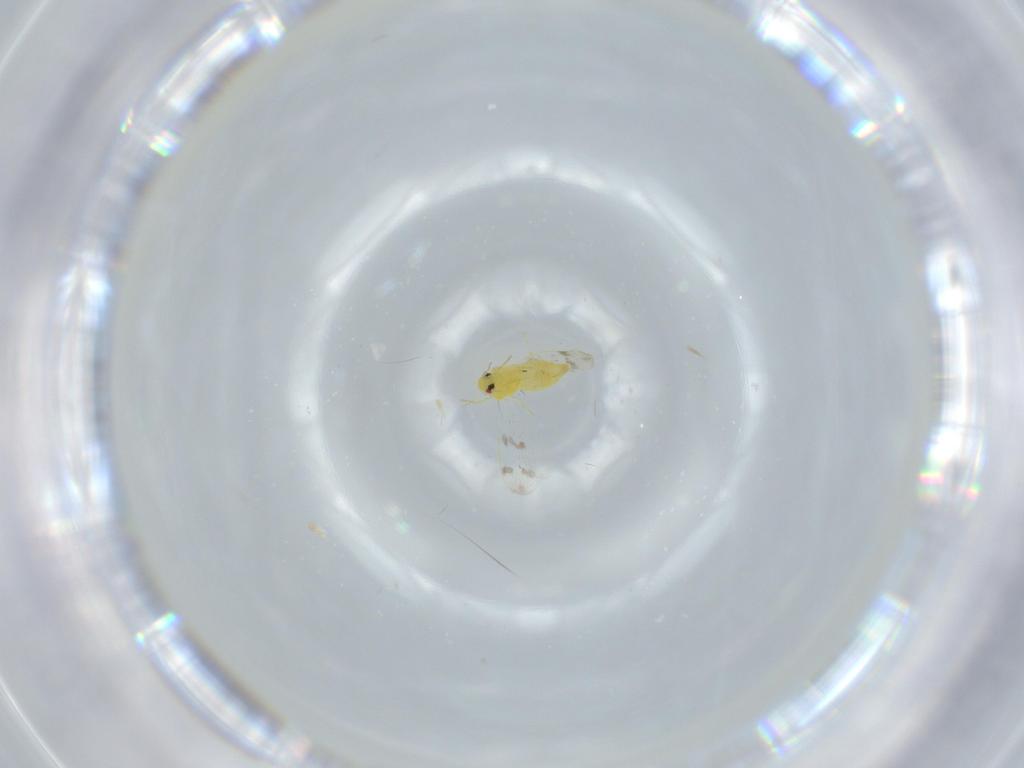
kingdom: Animalia
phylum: Arthropoda
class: Insecta
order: Hemiptera
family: Aleyrodidae
